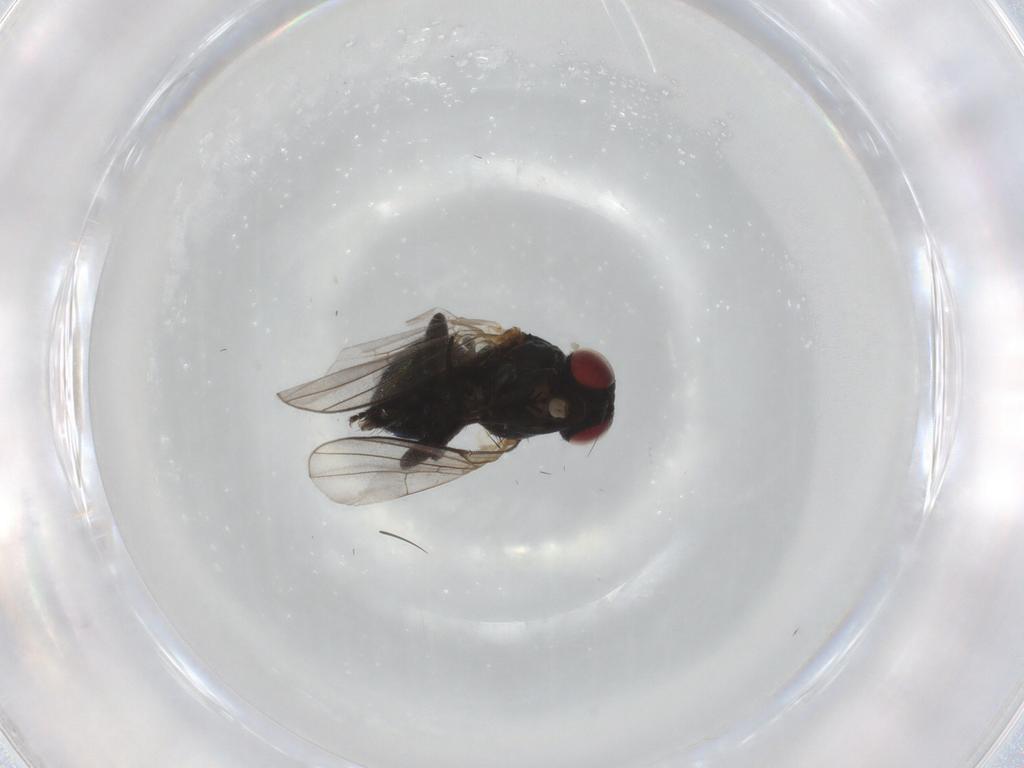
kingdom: Animalia
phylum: Arthropoda
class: Insecta
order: Diptera
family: Agromyzidae
